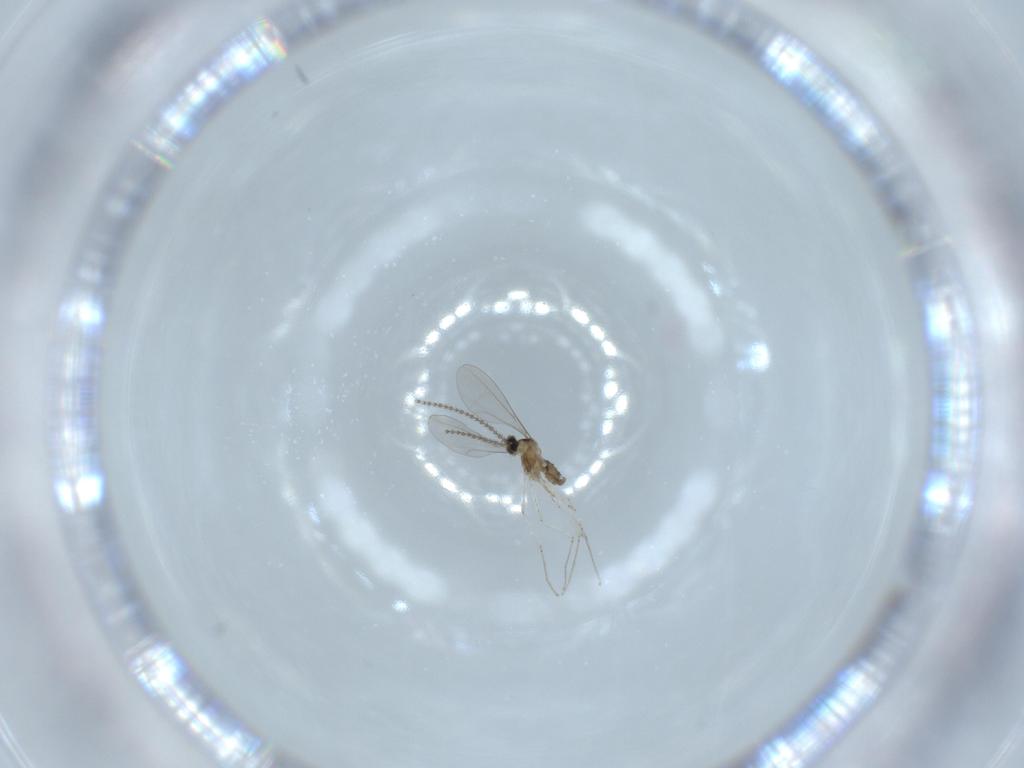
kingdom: Animalia
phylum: Arthropoda
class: Insecta
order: Diptera
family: Cecidomyiidae
